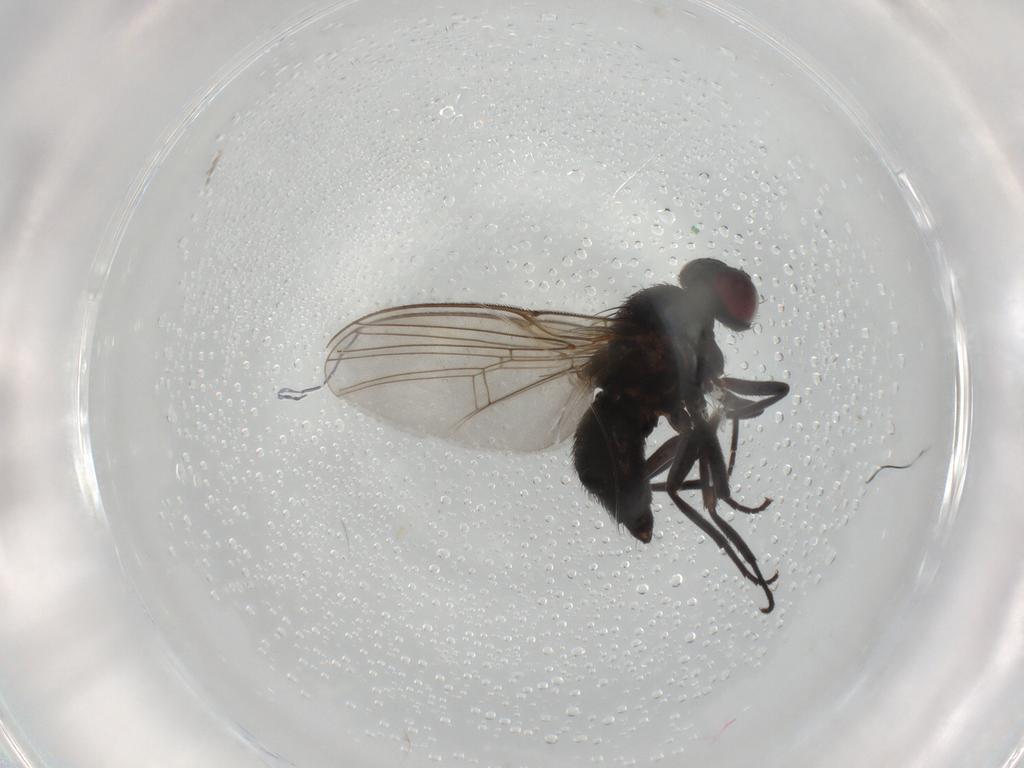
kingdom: Animalia
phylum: Arthropoda
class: Insecta
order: Diptera
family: Agromyzidae
